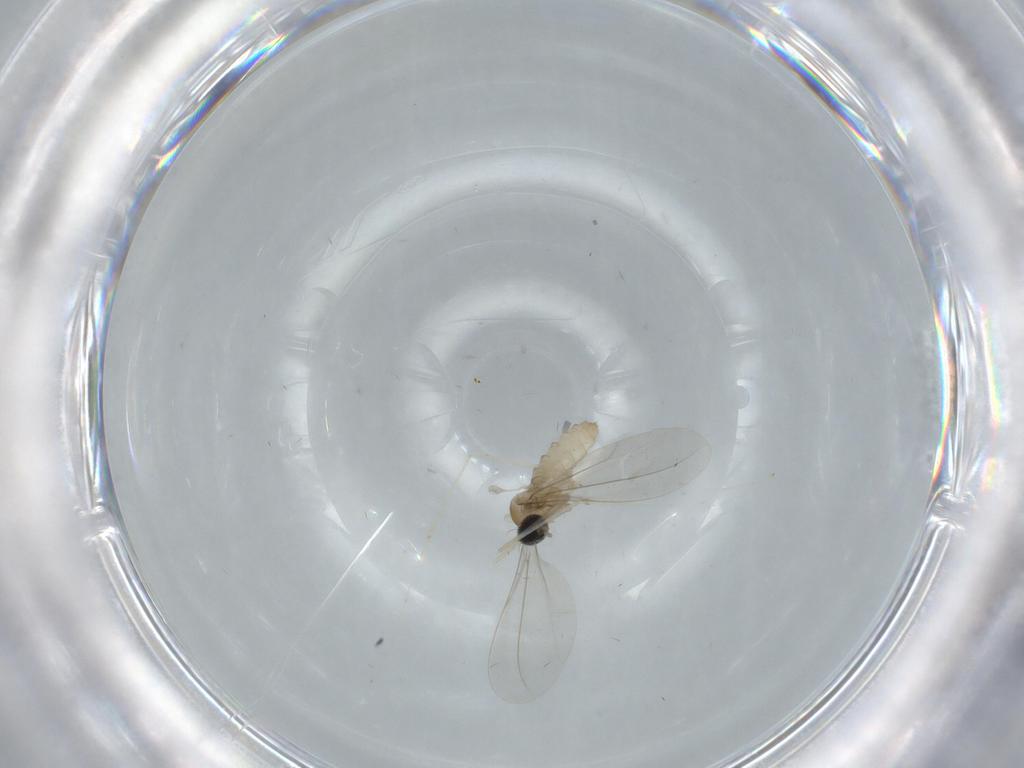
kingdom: Animalia
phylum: Arthropoda
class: Insecta
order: Diptera
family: Cecidomyiidae
